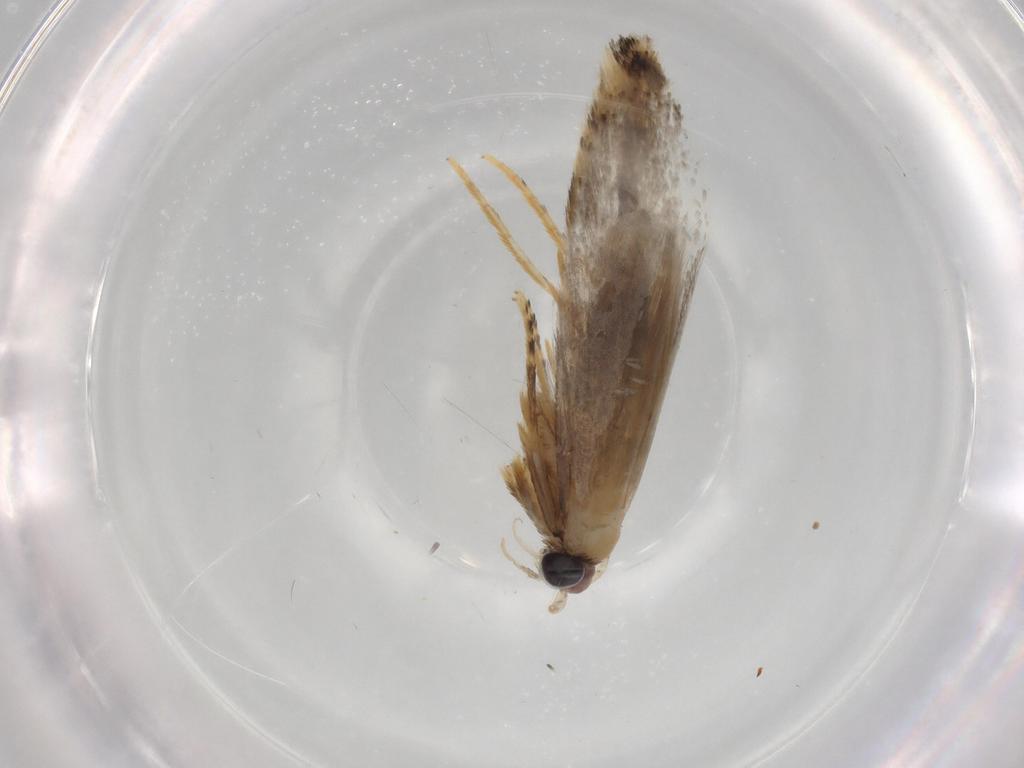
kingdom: Animalia
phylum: Arthropoda
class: Insecta
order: Lepidoptera
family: Tineidae
